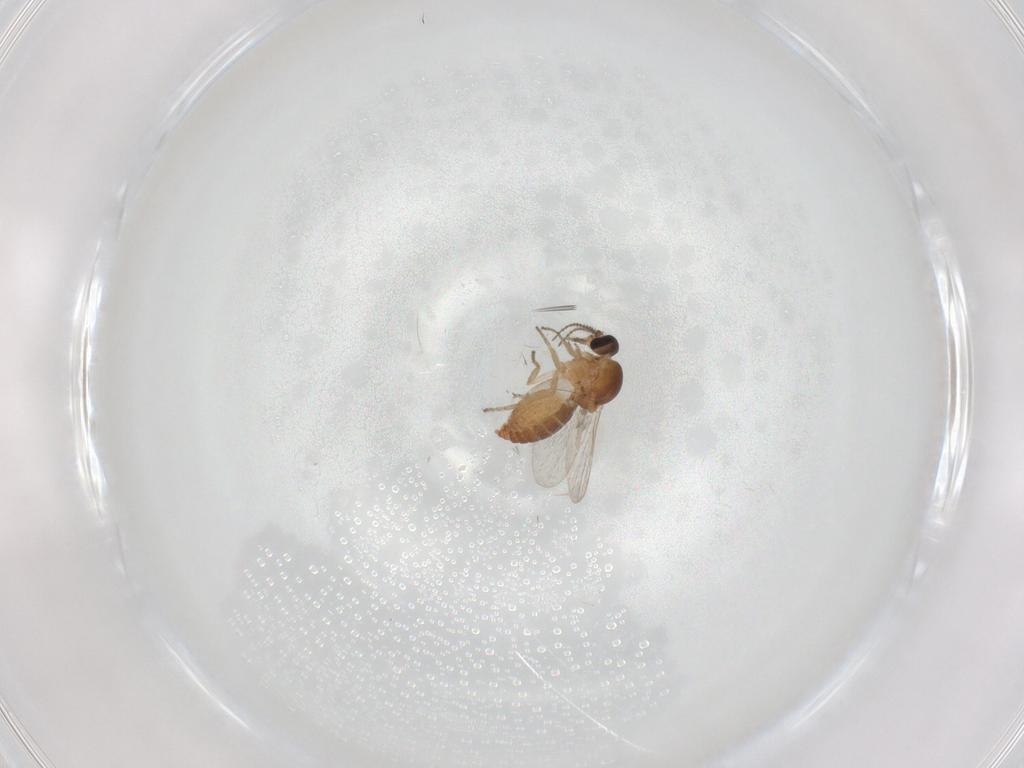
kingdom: Animalia
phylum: Arthropoda
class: Insecta
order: Diptera
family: Ceratopogonidae
